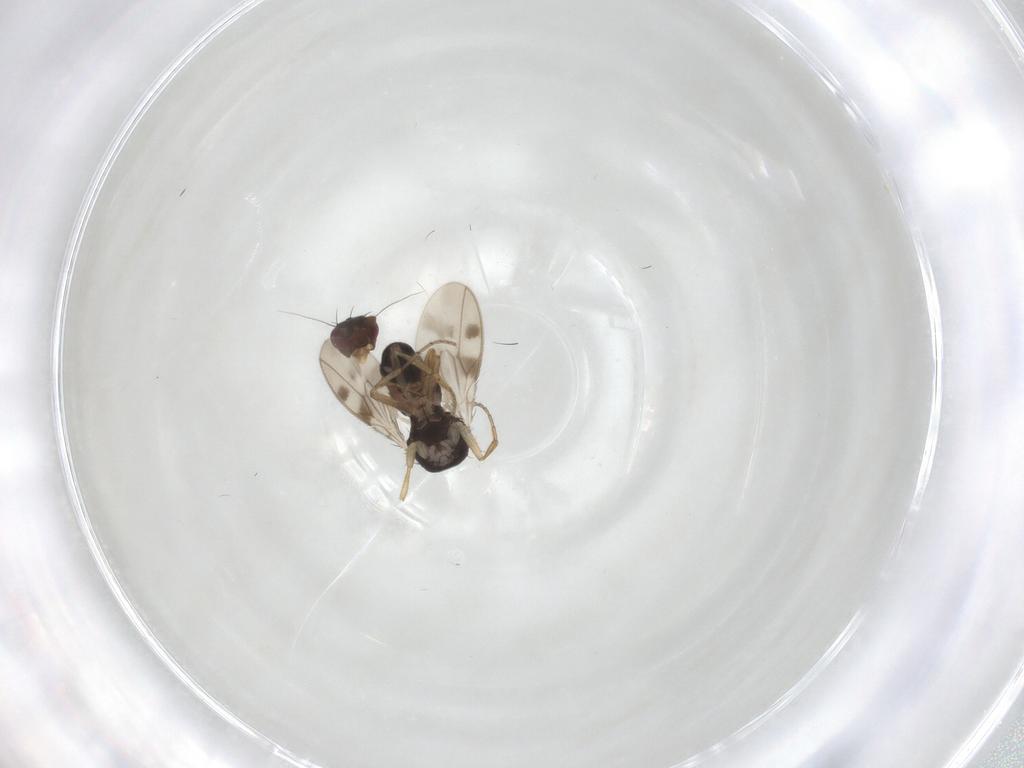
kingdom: Animalia
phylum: Arthropoda
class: Insecta
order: Diptera
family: Sphaeroceridae
